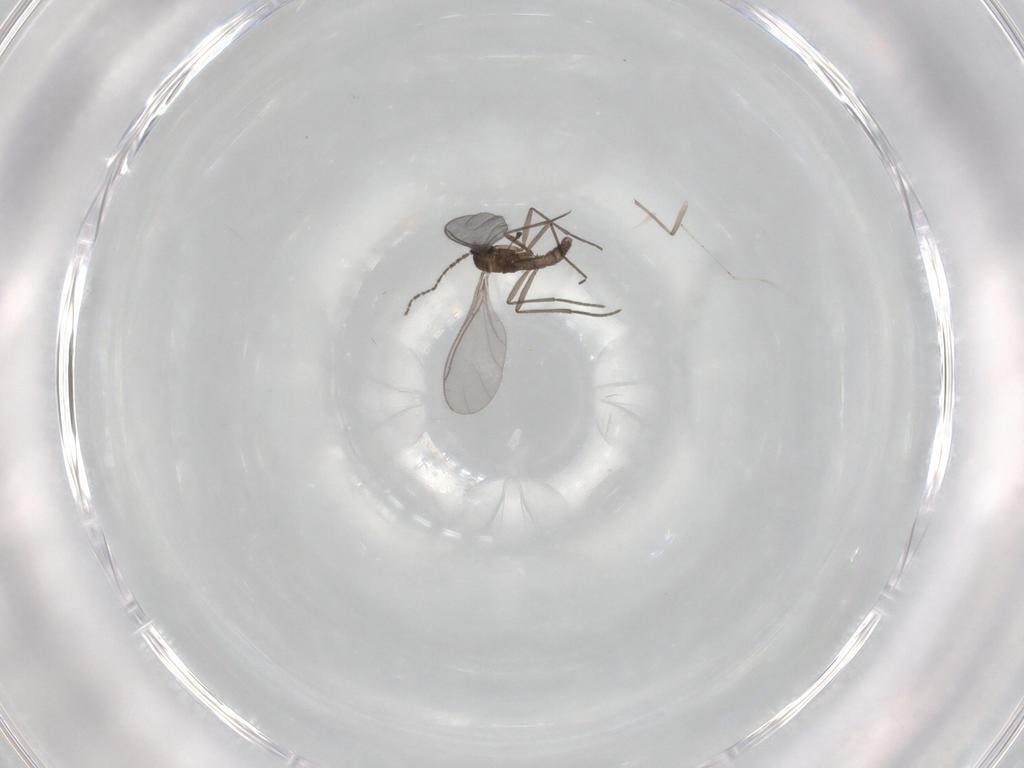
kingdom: Animalia
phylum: Arthropoda
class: Insecta
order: Diptera
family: Sciaridae
